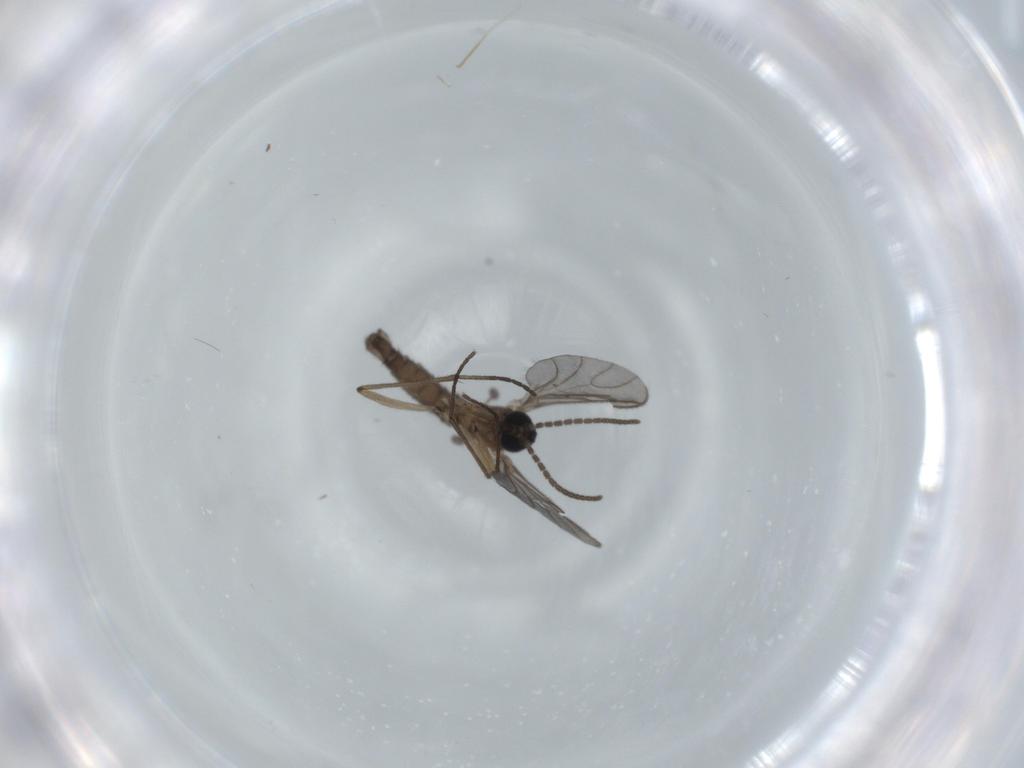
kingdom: Animalia
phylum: Arthropoda
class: Insecta
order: Diptera
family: Sciaridae
